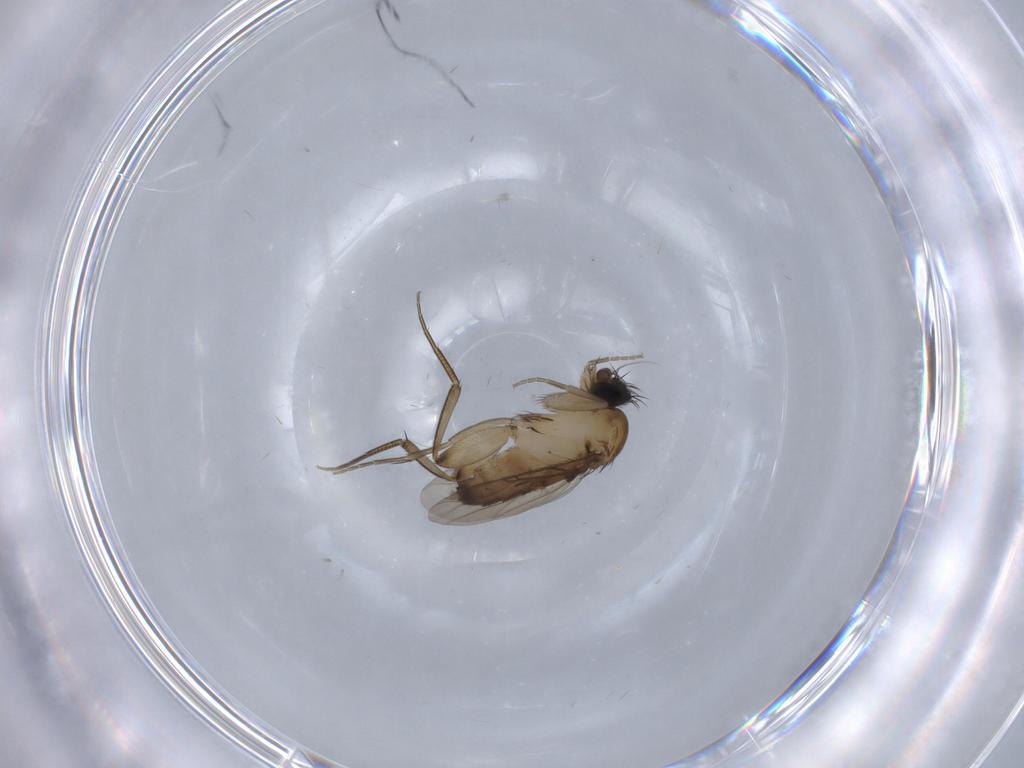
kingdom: Animalia
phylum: Arthropoda
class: Insecta
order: Diptera
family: Phoridae
